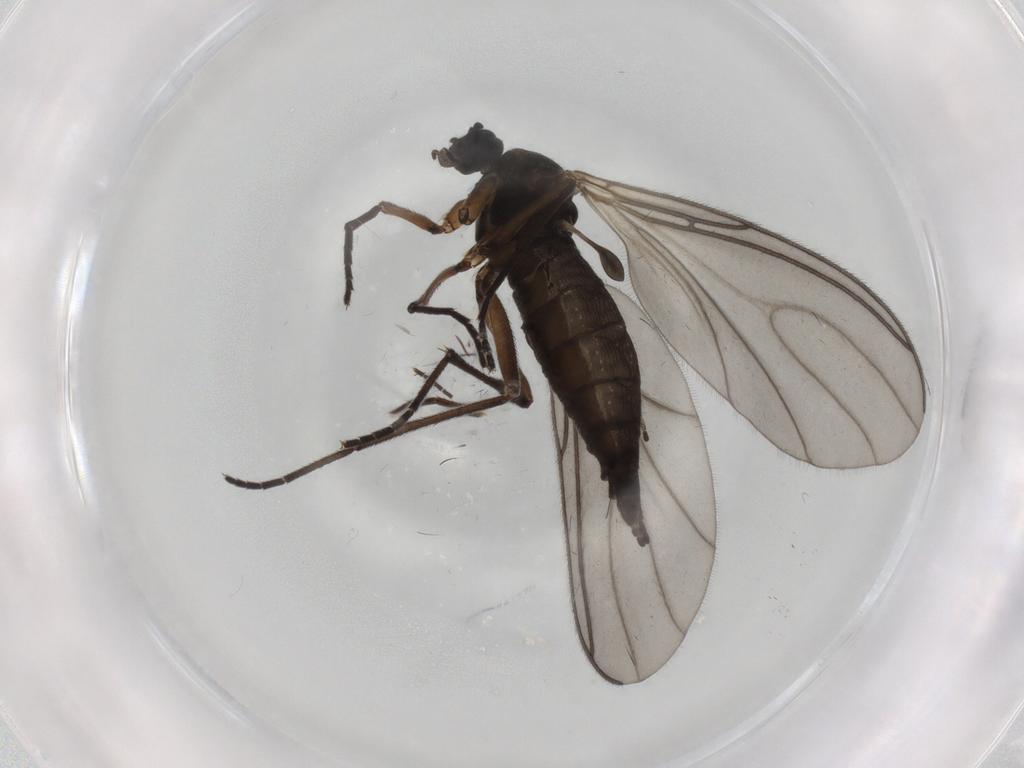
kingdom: Animalia
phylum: Arthropoda
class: Insecta
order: Diptera
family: Sciaridae
